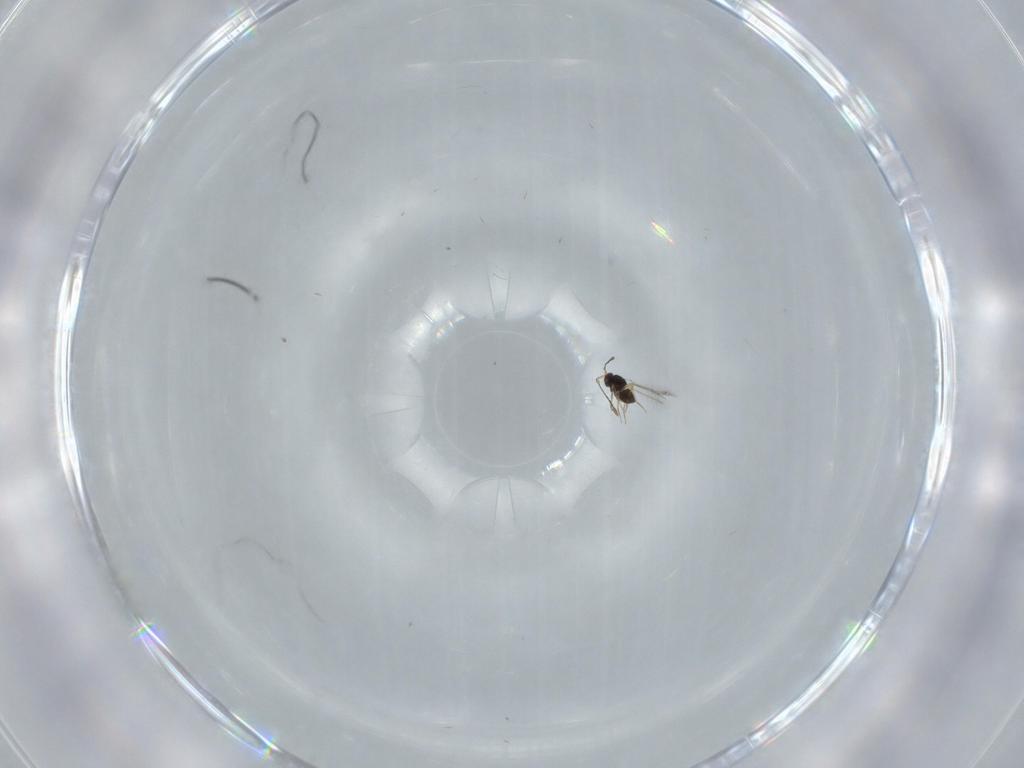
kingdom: Animalia
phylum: Arthropoda
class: Insecta
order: Hymenoptera
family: Mymaridae
